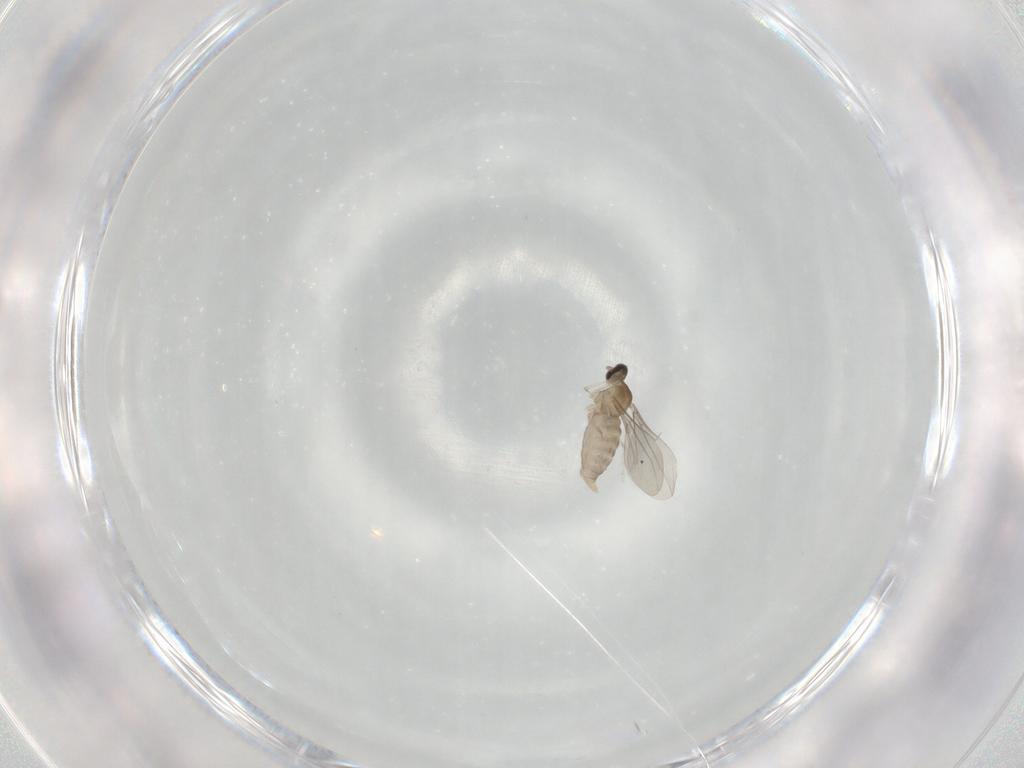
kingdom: Animalia
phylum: Arthropoda
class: Insecta
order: Diptera
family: Cecidomyiidae
